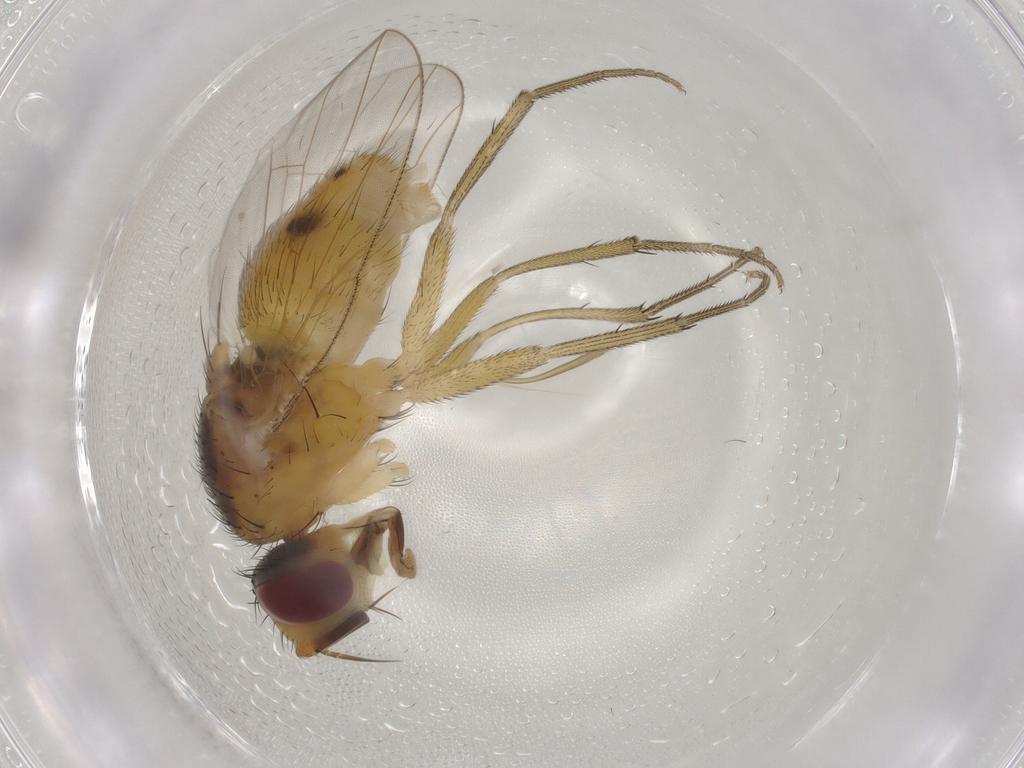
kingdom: Animalia
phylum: Arthropoda
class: Insecta
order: Diptera
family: Muscidae
